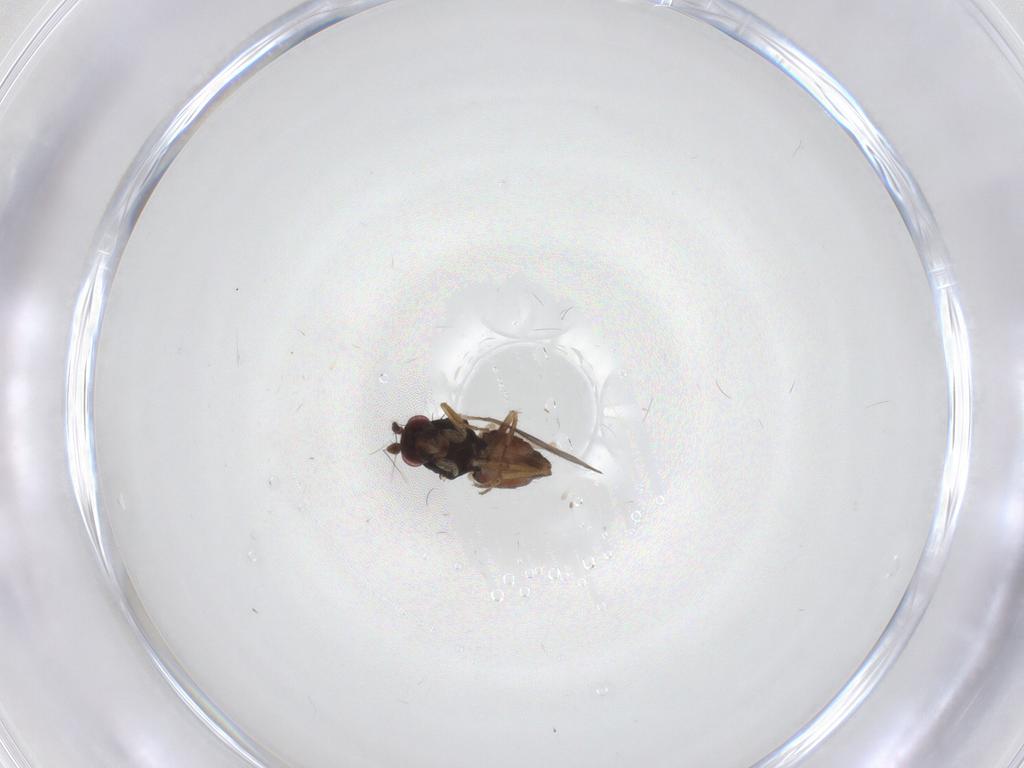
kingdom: Animalia
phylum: Arthropoda
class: Insecta
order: Diptera
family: Sphaeroceridae
